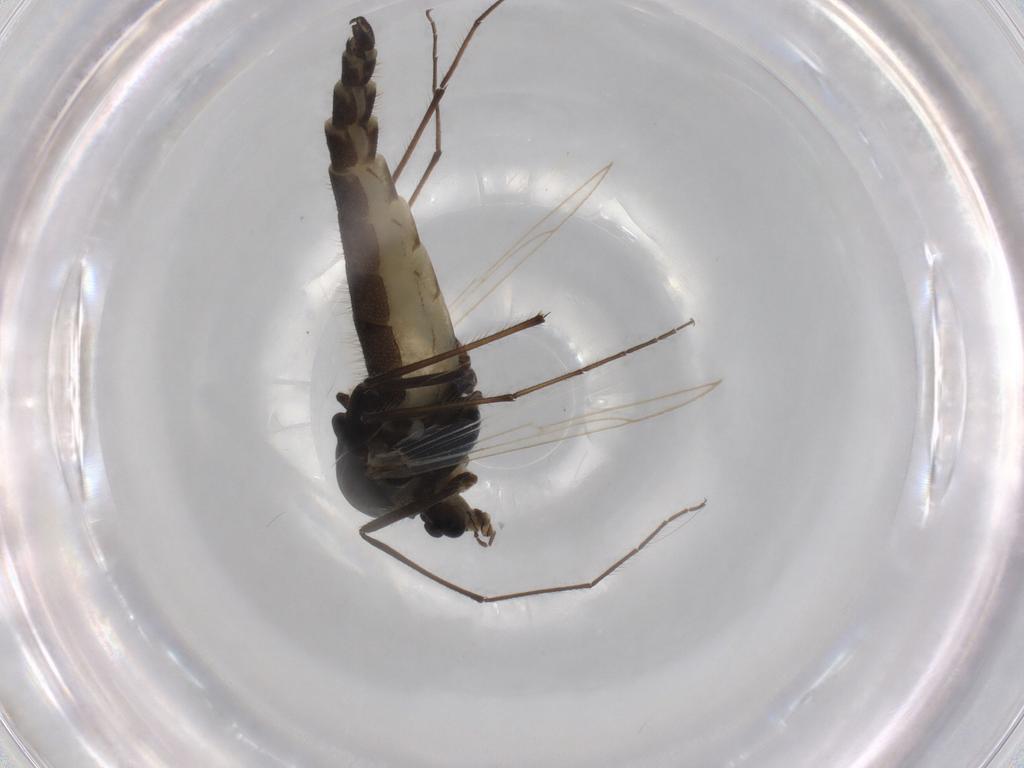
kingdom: Animalia
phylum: Arthropoda
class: Insecta
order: Diptera
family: Chironomidae
